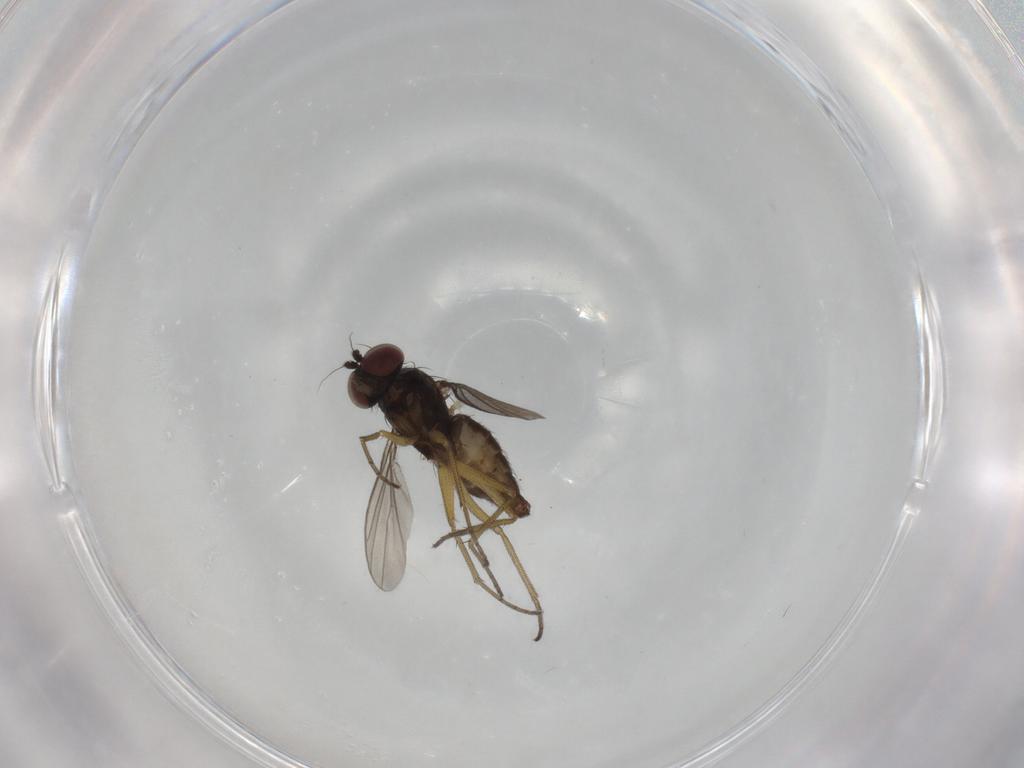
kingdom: Animalia
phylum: Arthropoda
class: Insecta
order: Diptera
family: Dolichopodidae
